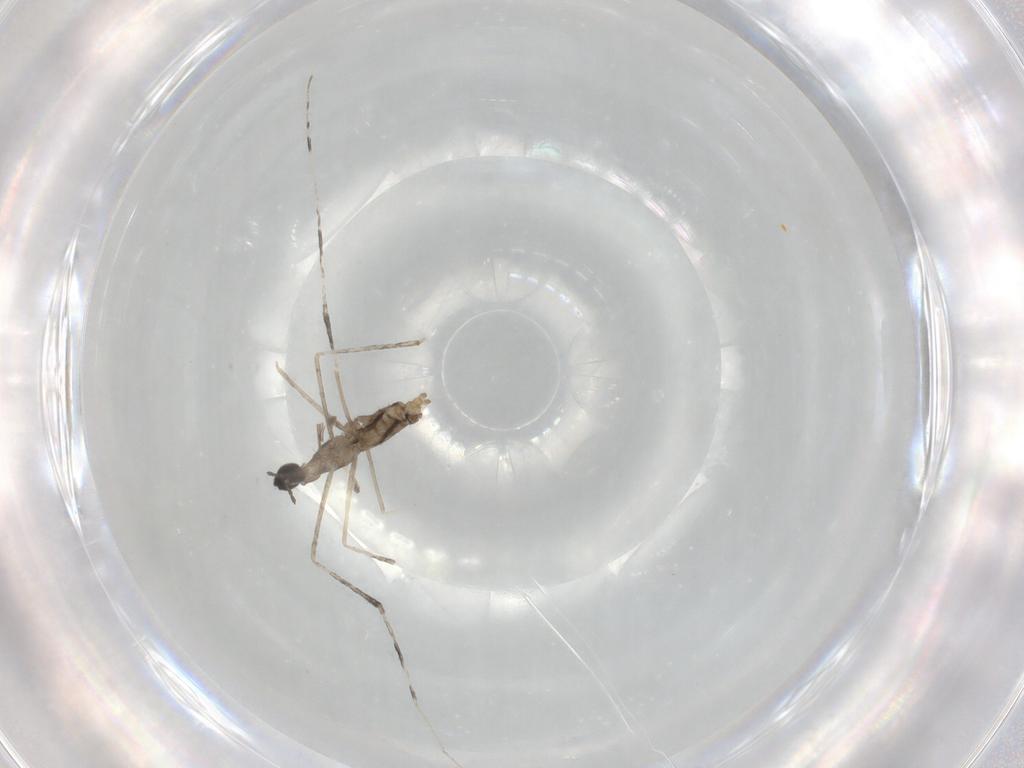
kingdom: Animalia
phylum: Arthropoda
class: Insecta
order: Diptera
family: Cecidomyiidae
